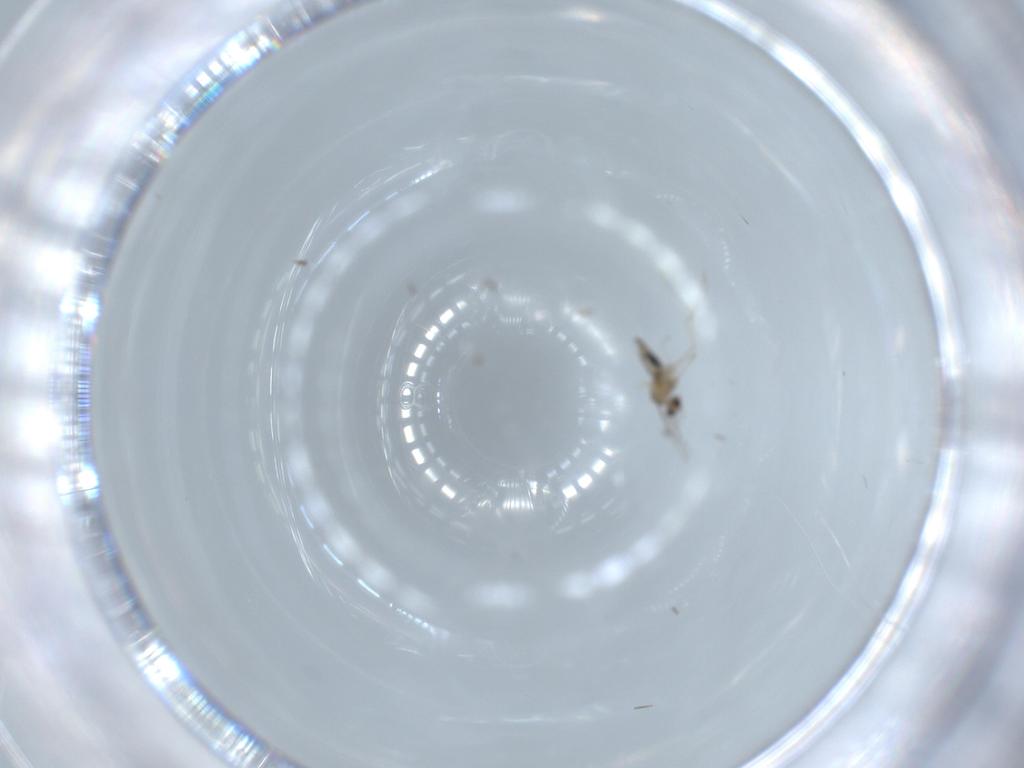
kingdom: Animalia
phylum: Arthropoda
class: Insecta
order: Diptera
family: Cecidomyiidae
